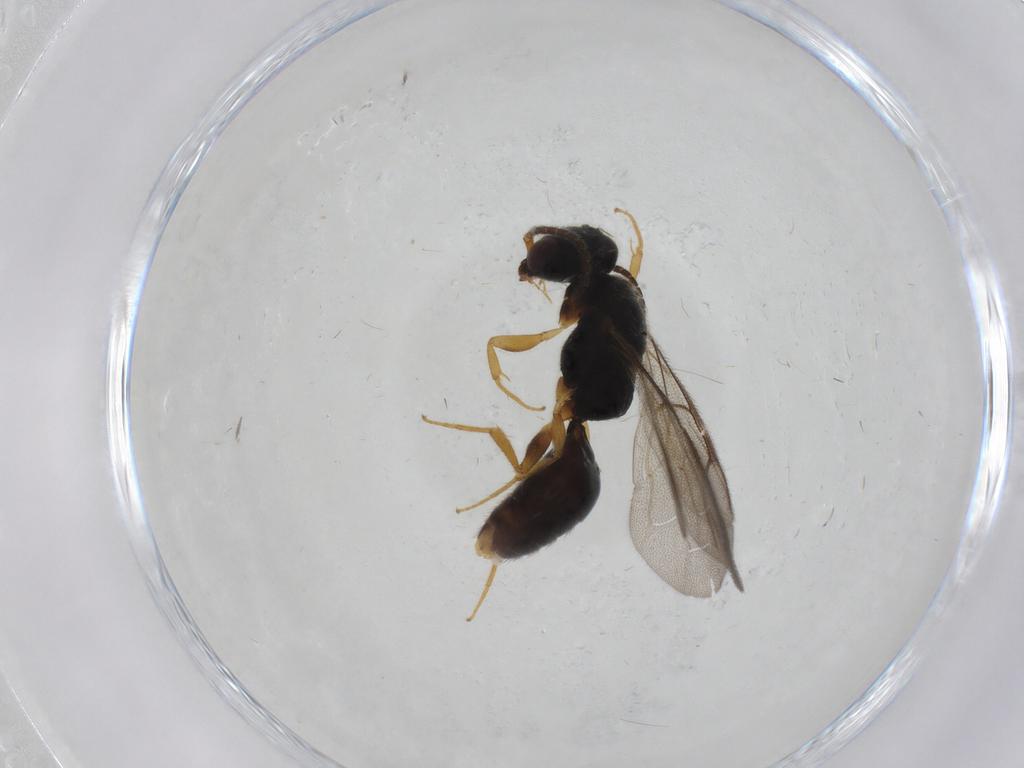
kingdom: Animalia
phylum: Arthropoda
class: Insecta
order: Hymenoptera
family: Bethylidae
